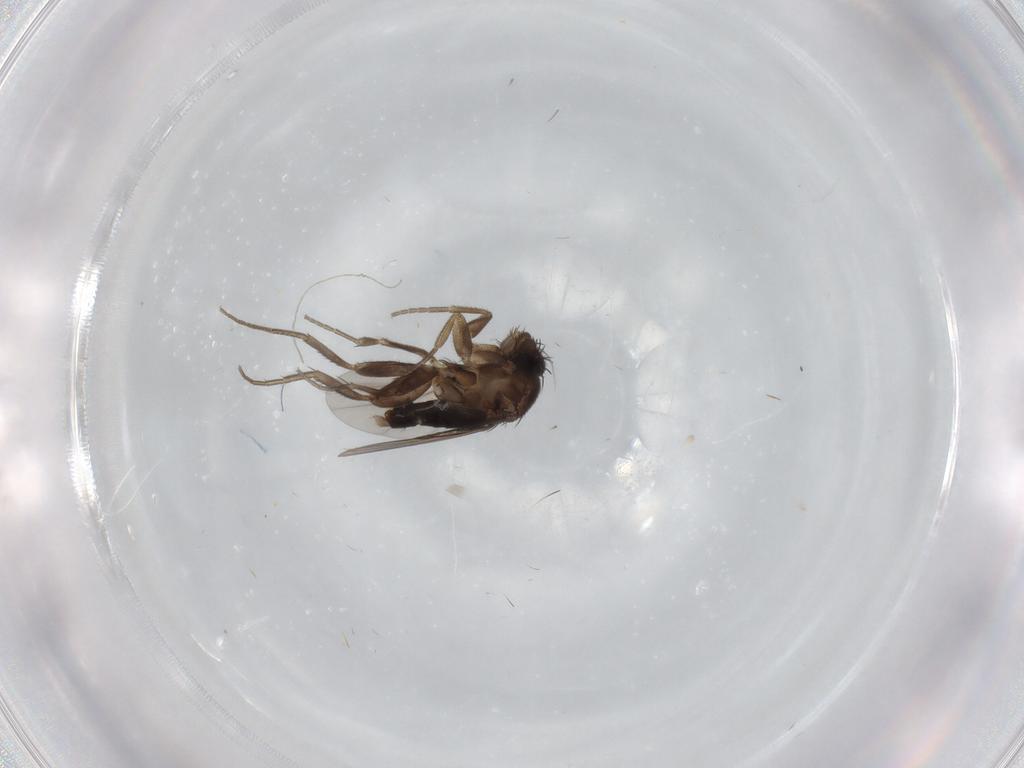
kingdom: Animalia
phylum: Arthropoda
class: Insecta
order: Diptera
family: Phoridae
